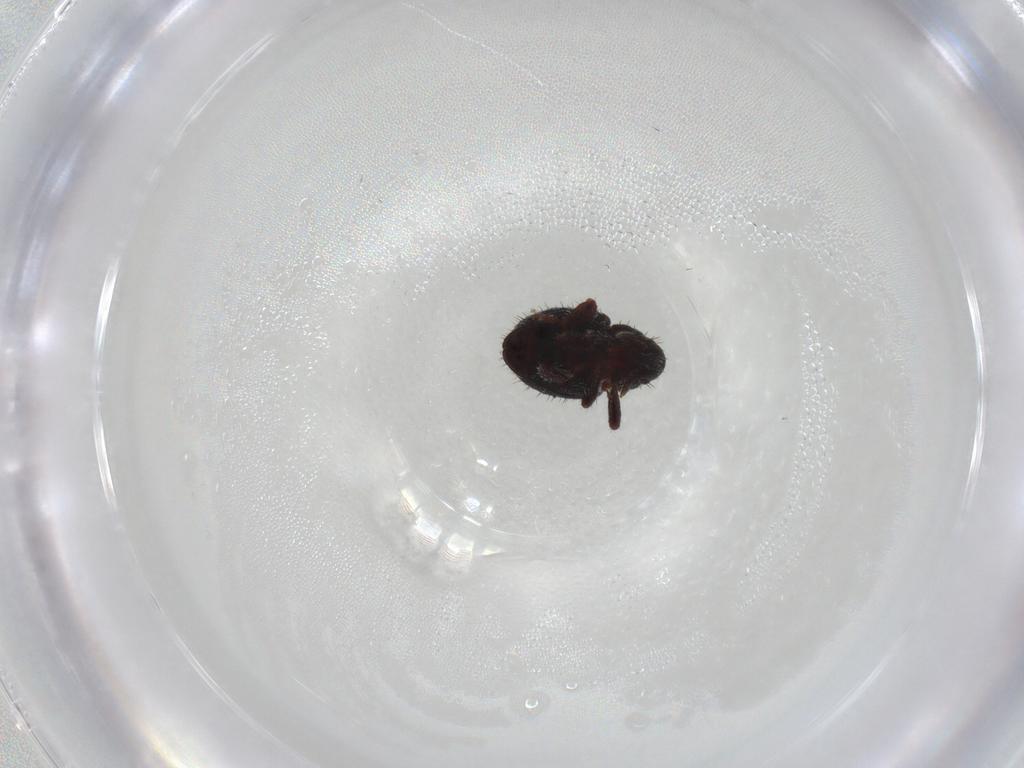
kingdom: Animalia
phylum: Arthropoda
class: Insecta
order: Coleoptera
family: Curculionidae
